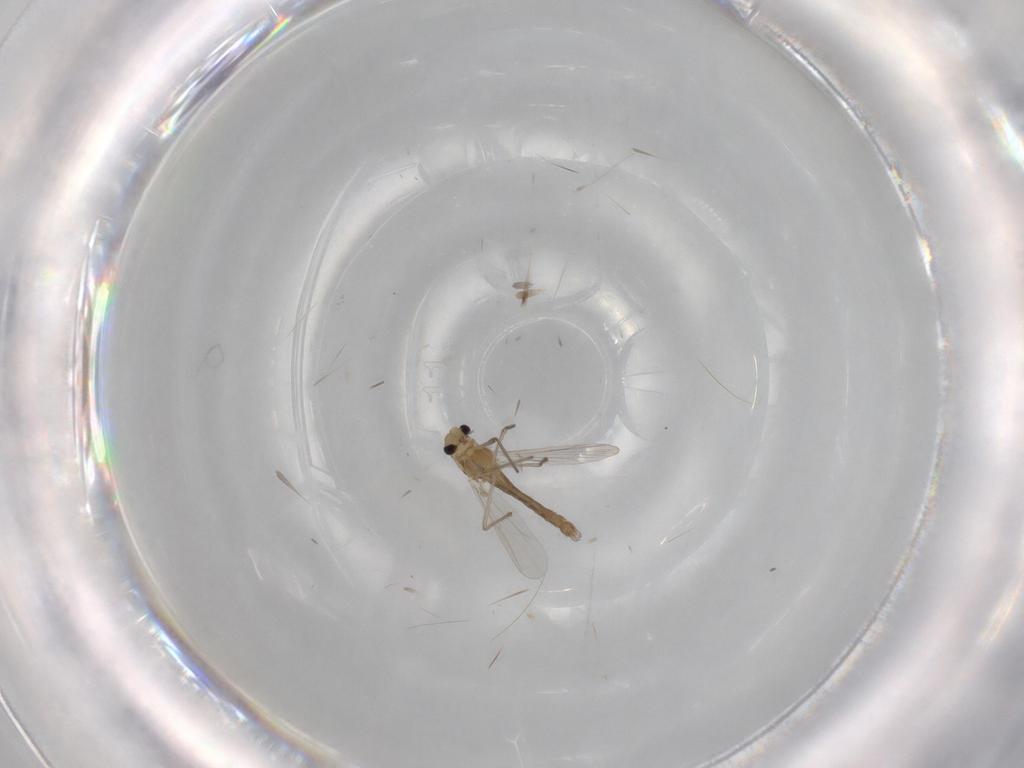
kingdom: Animalia
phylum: Arthropoda
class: Insecta
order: Diptera
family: Chironomidae
